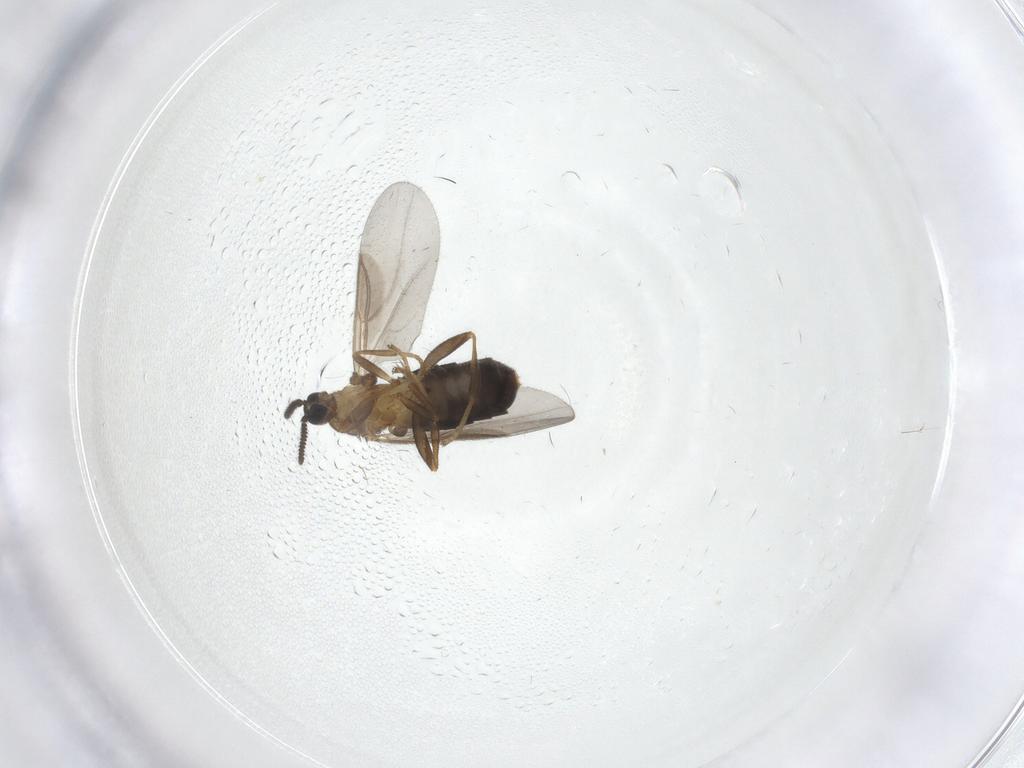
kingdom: Animalia
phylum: Arthropoda
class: Insecta
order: Diptera
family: Scatopsidae
